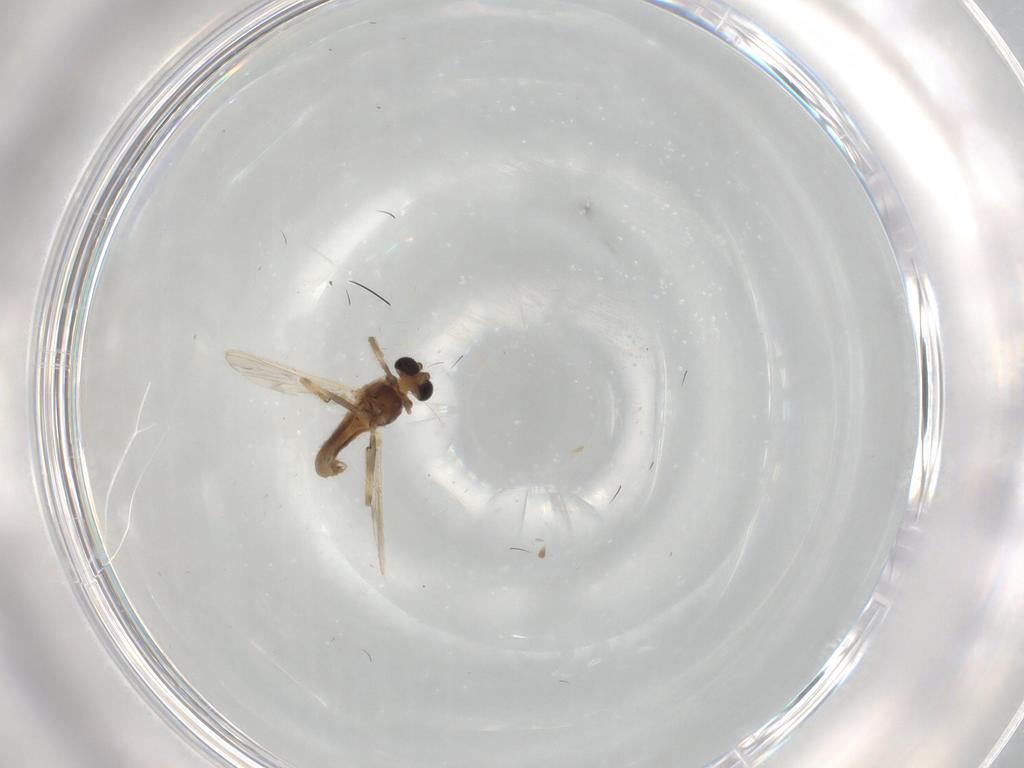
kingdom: Animalia
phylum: Arthropoda
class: Insecta
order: Diptera
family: Chironomidae
